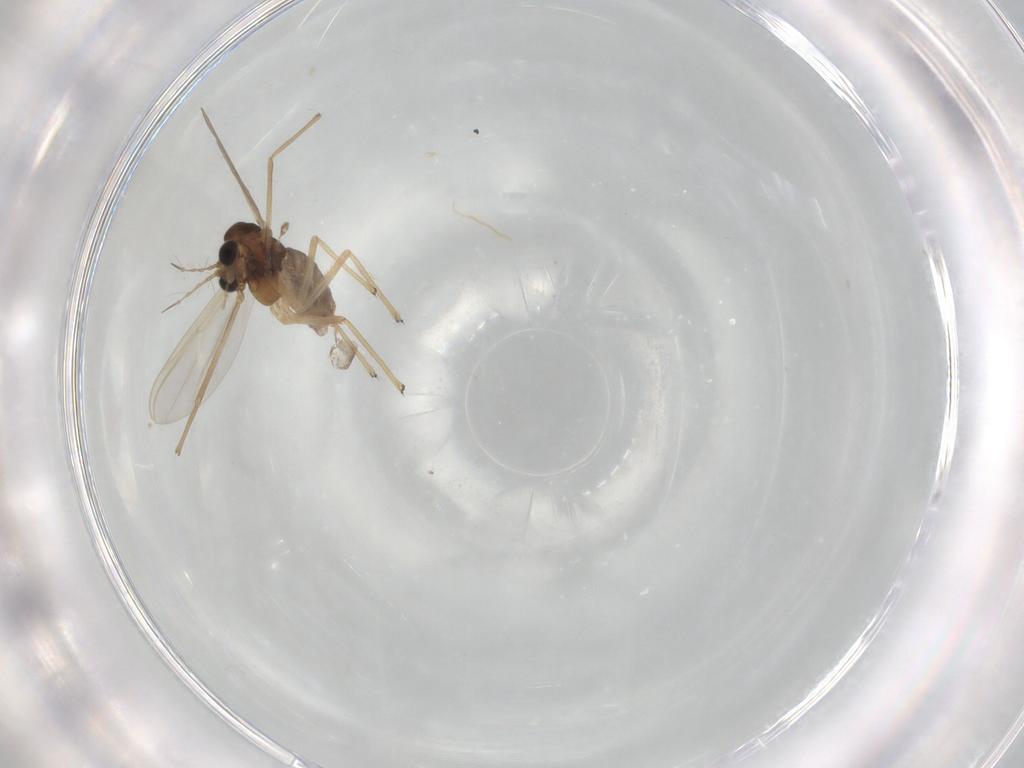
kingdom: Animalia
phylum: Arthropoda
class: Insecta
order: Diptera
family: Chironomidae
